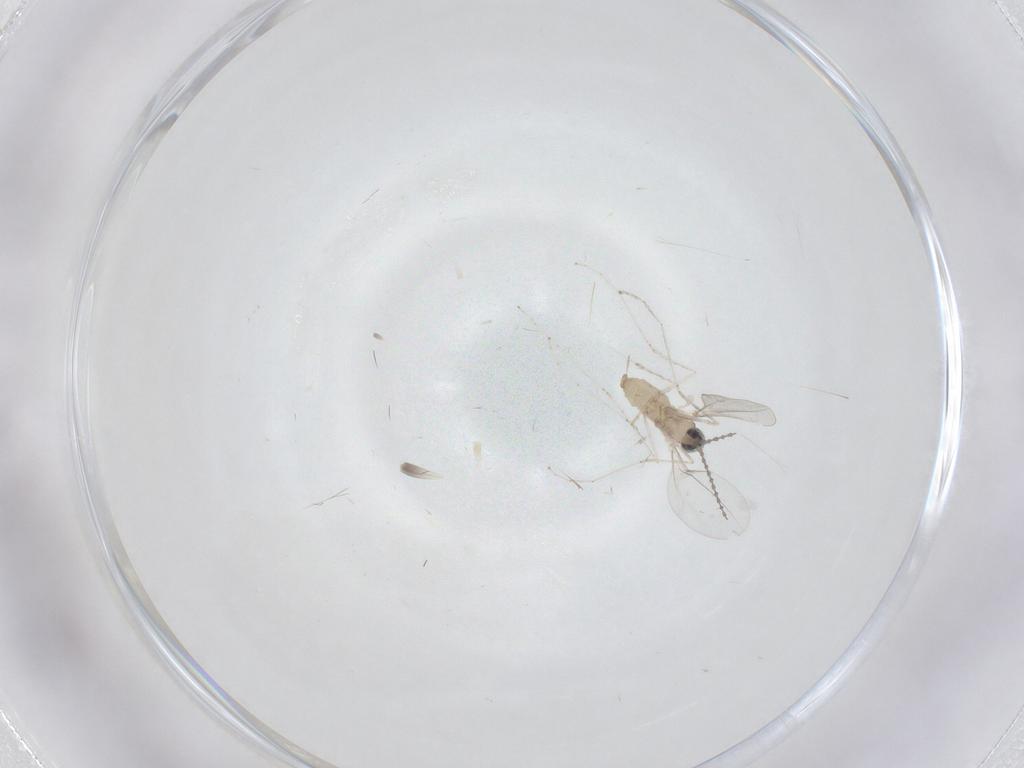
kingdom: Animalia
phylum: Arthropoda
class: Insecta
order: Diptera
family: Cecidomyiidae
